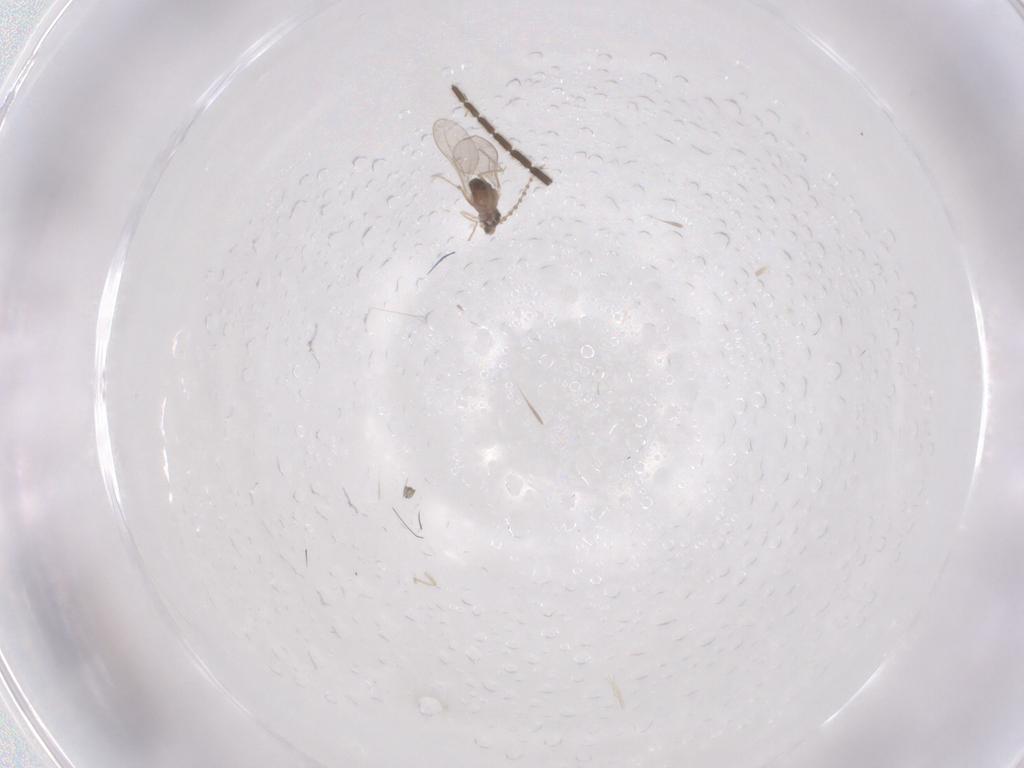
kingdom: Animalia
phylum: Arthropoda
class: Insecta
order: Diptera
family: Cecidomyiidae
